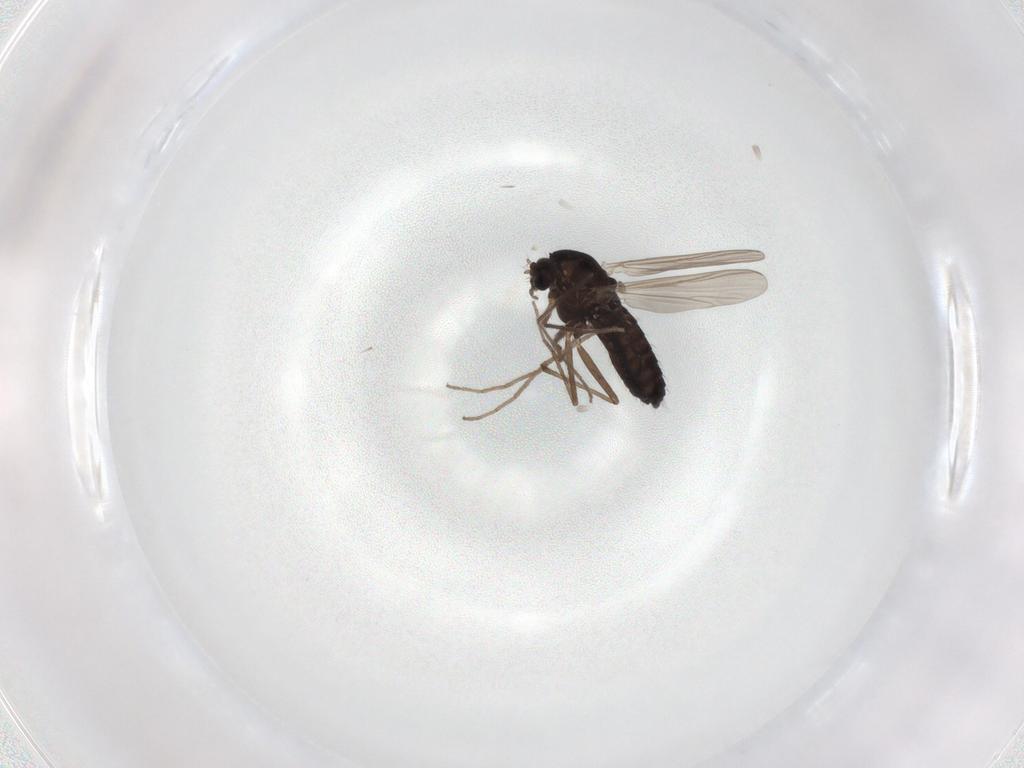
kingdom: Animalia
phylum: Arthropoda
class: Insecta
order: Diptera
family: Chironomidae
